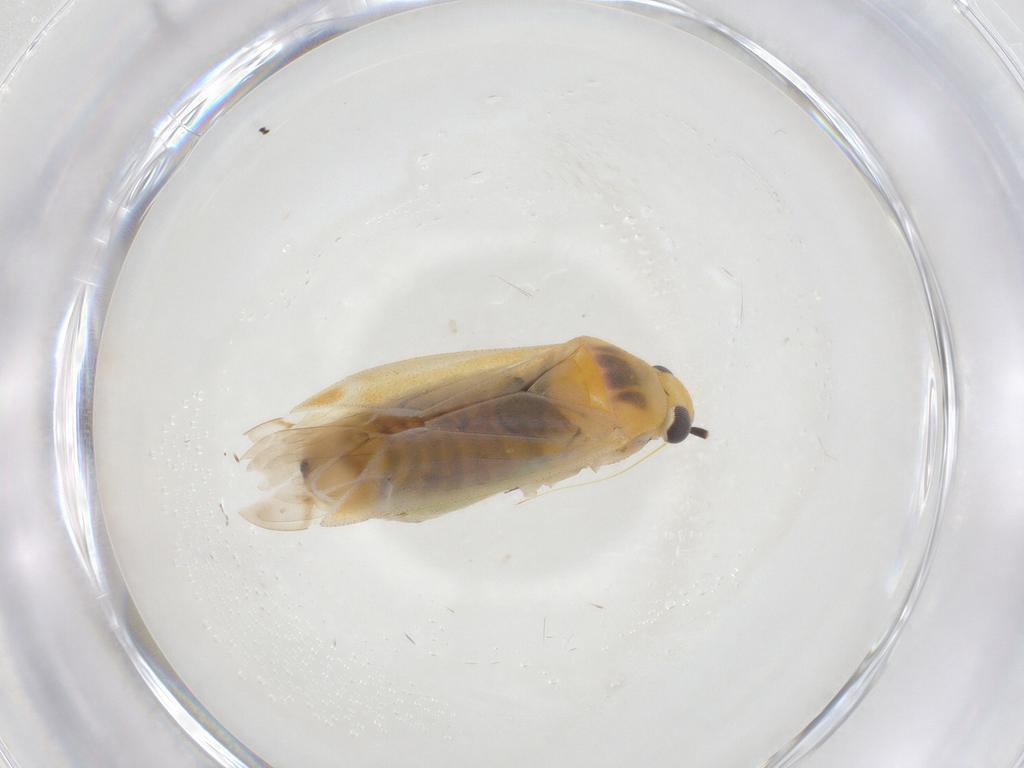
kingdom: Animalia
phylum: Arthropoda
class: Insecta
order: Hemiptera
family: Miridae
